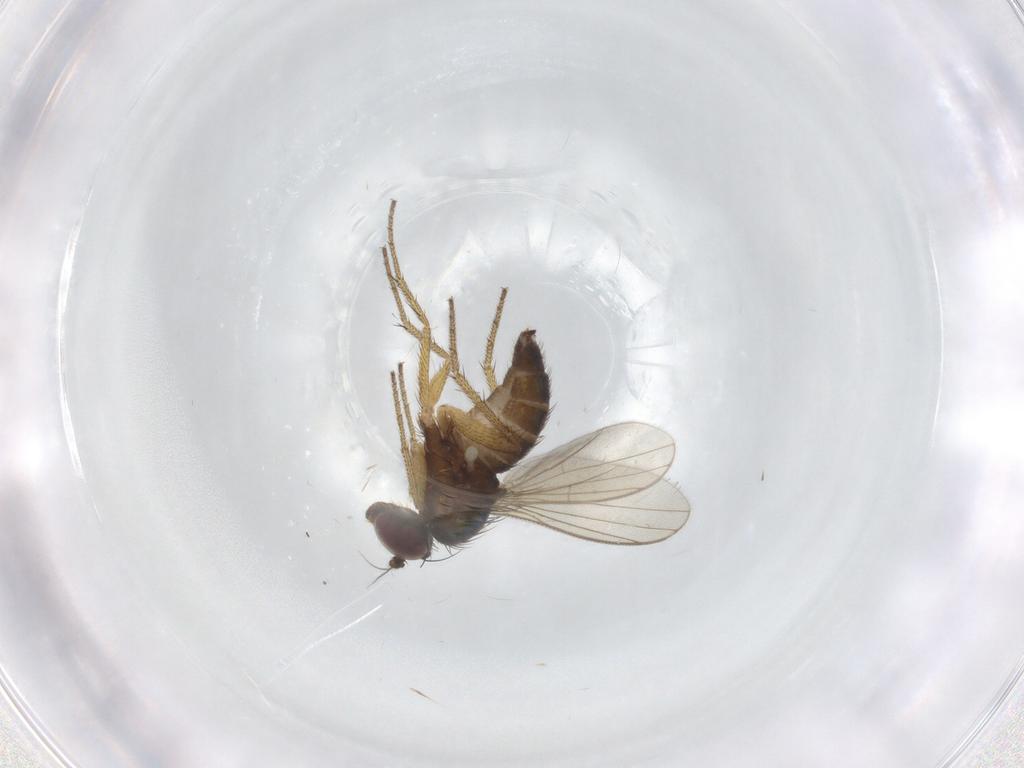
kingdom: Animalia
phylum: Arthropoda
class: Insecta
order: Diptera
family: Dolichopodidae
